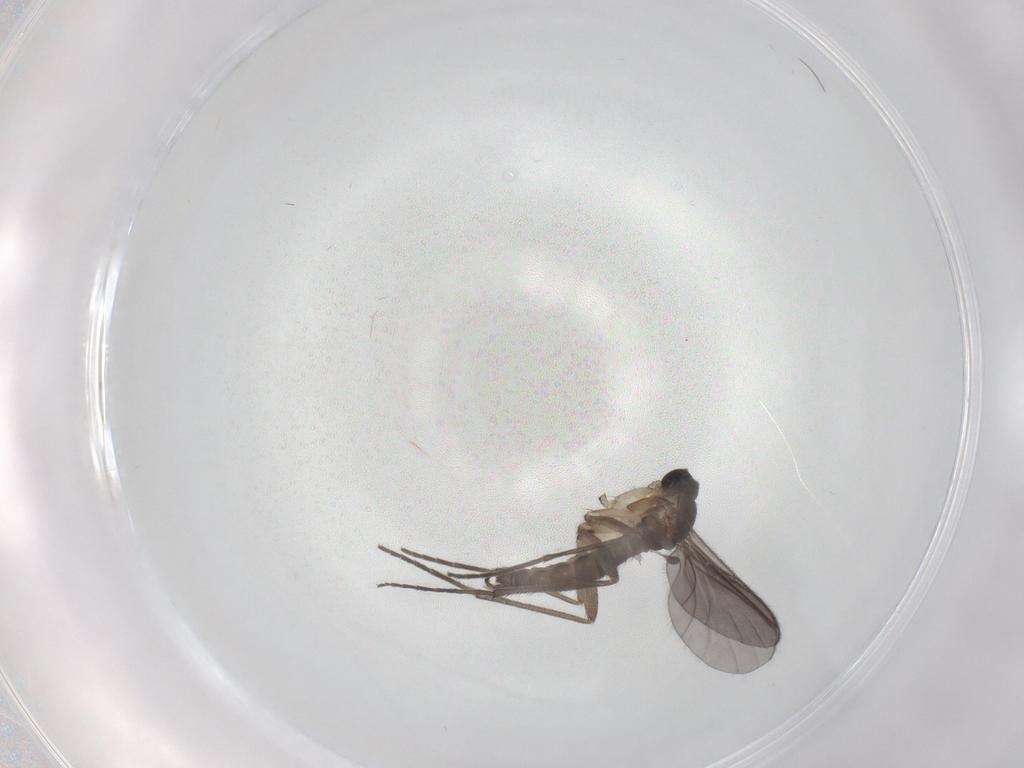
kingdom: Animalia
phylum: Arthropoda
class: Insecta
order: Diptera
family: Sciaridae
